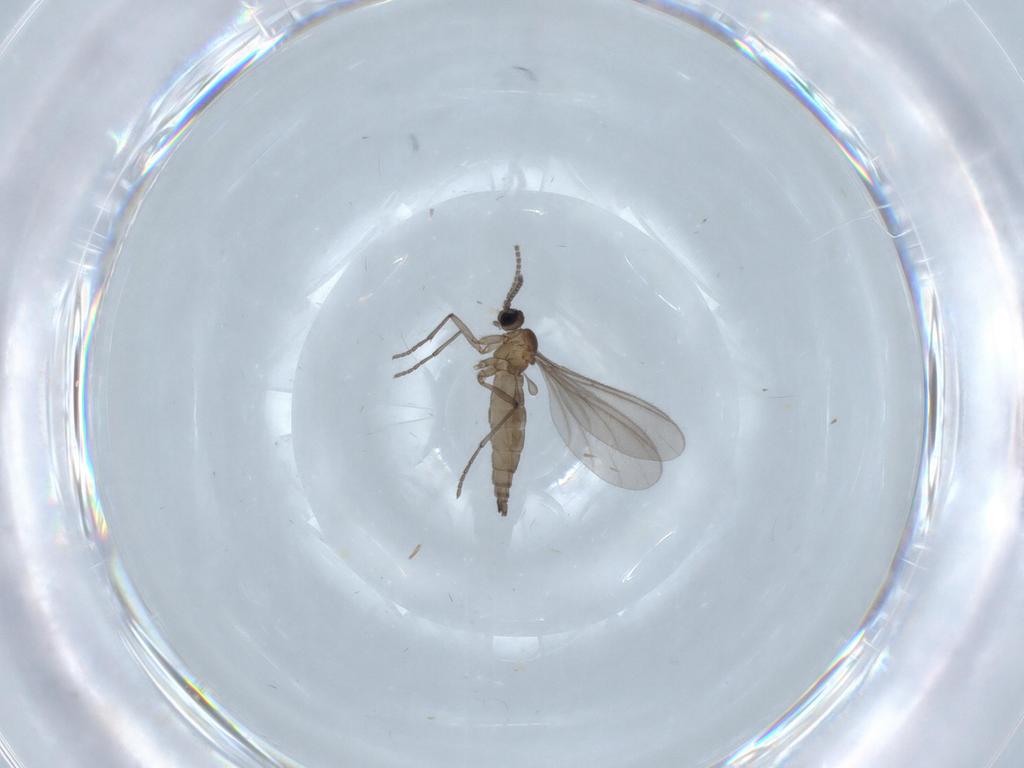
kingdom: Animalia
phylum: Arthropoda
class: Insecta
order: Diptera
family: Sciaridae
